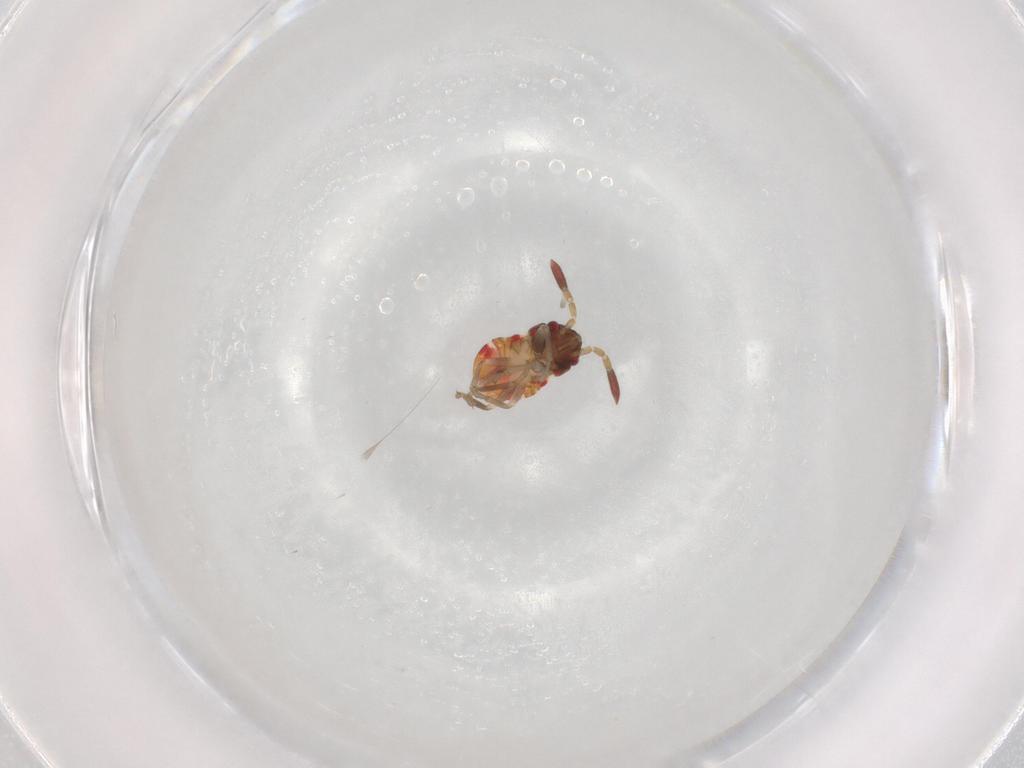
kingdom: Animalia
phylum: Arthropoda
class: Insecta
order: Hemiptera
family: Rhyparochromidae
